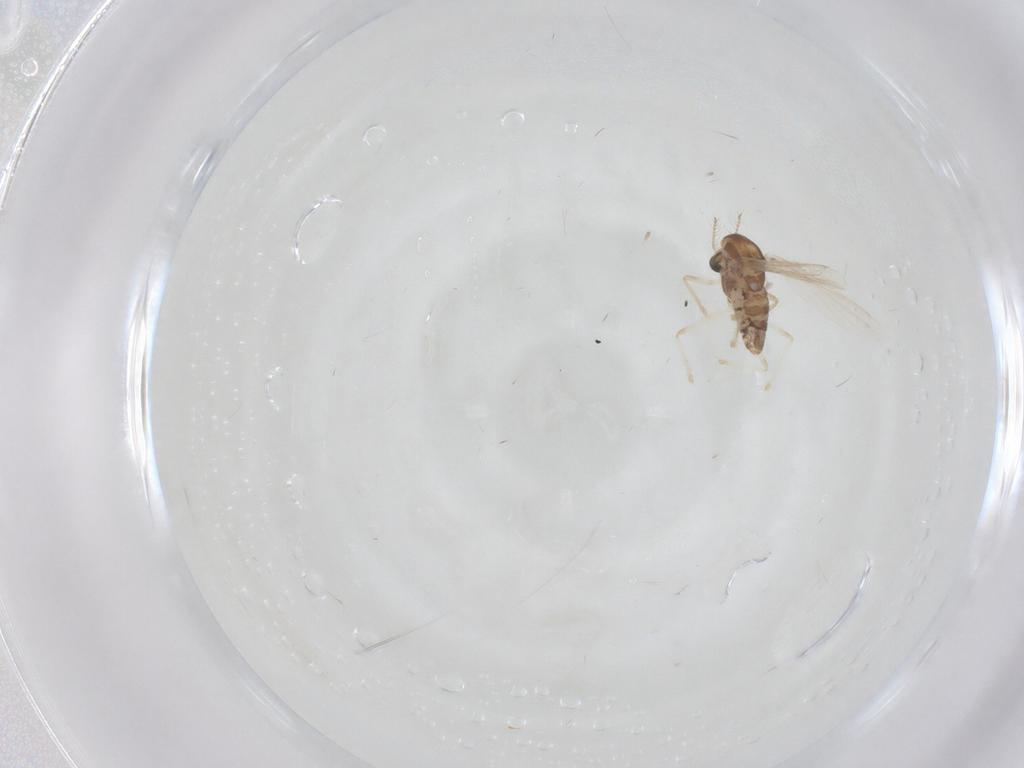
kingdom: Animalia
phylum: Arthropoda
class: Insecta
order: Diptera
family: Chironomidae
